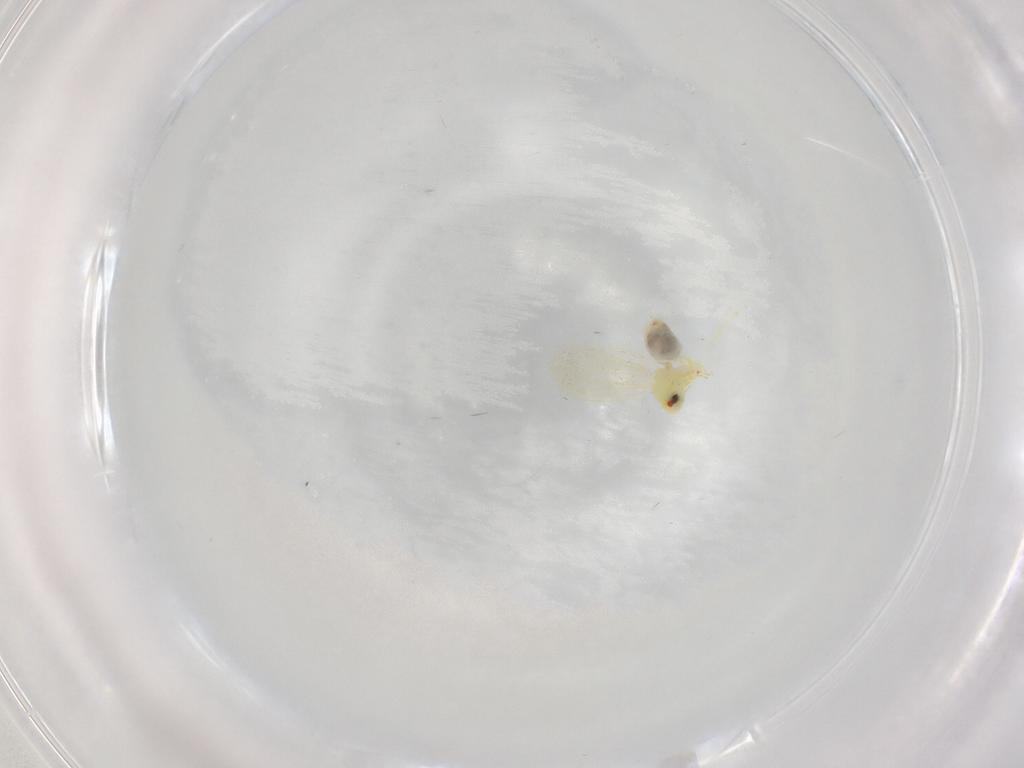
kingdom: Animalia
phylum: Arthropoda
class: Insecta
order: Hemiptera
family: Aleyrodidae
